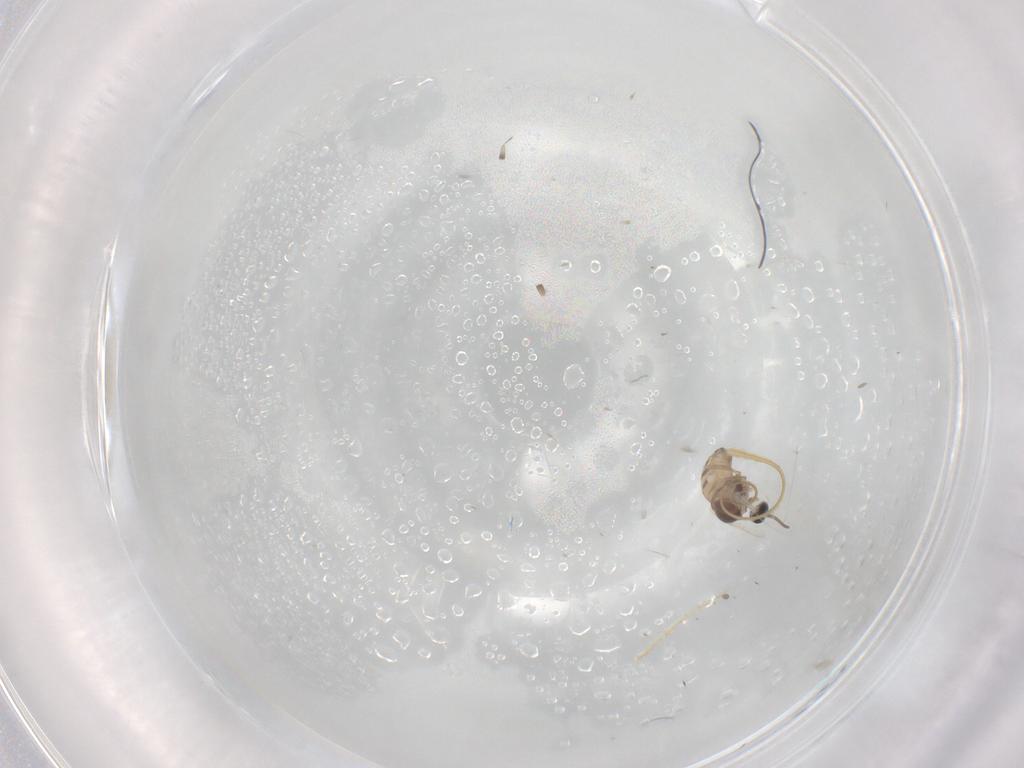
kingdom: Animalia
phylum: Arthropoda
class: Insecta
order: Diptera
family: Cecidomyiidae
